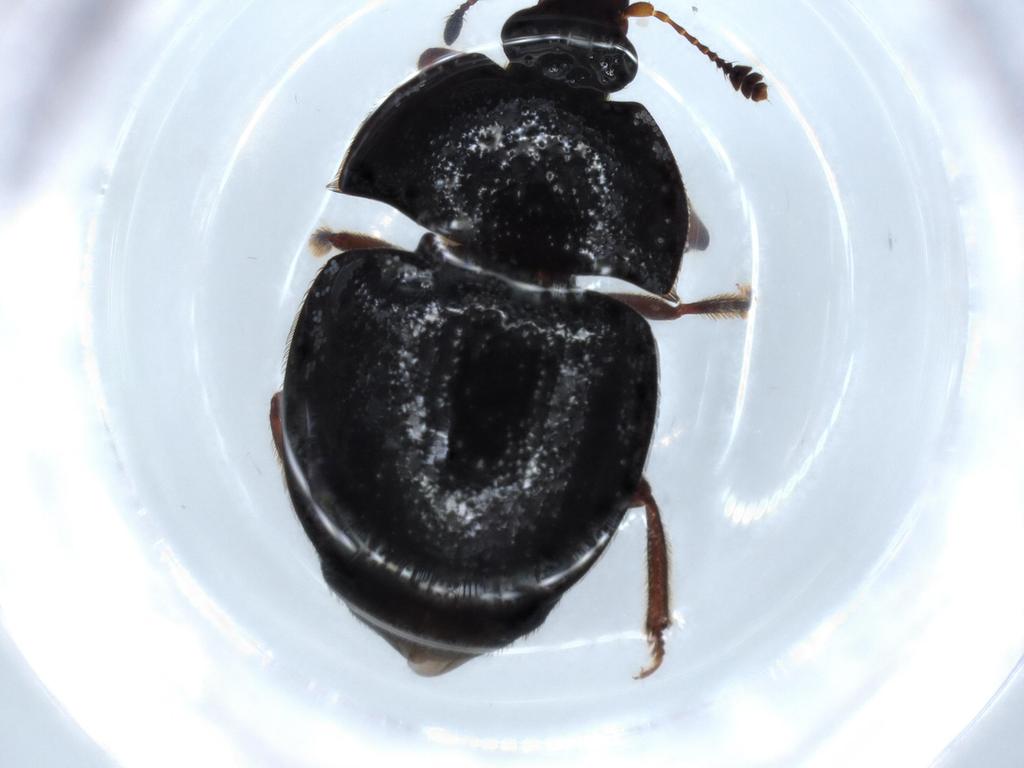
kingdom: Animalia
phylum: Arthropoda
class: Insecta
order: Coleoptera
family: Aderidae
